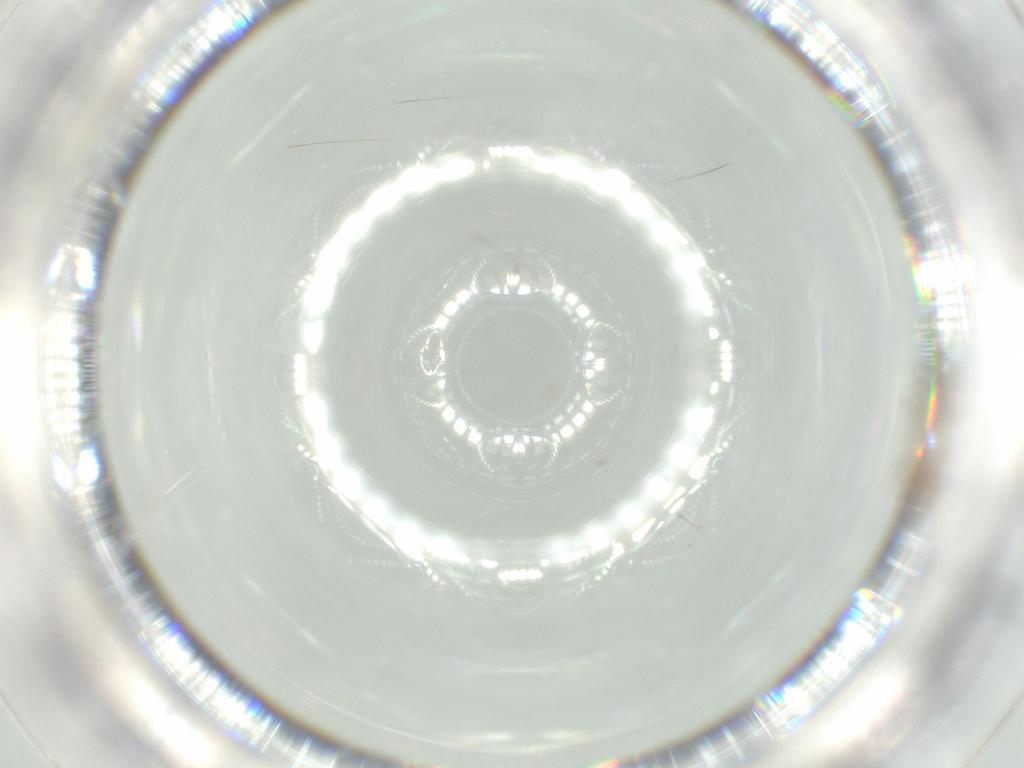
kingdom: Animalia
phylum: Arthropoda
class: Insecta
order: Diptera
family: Chironomidae
